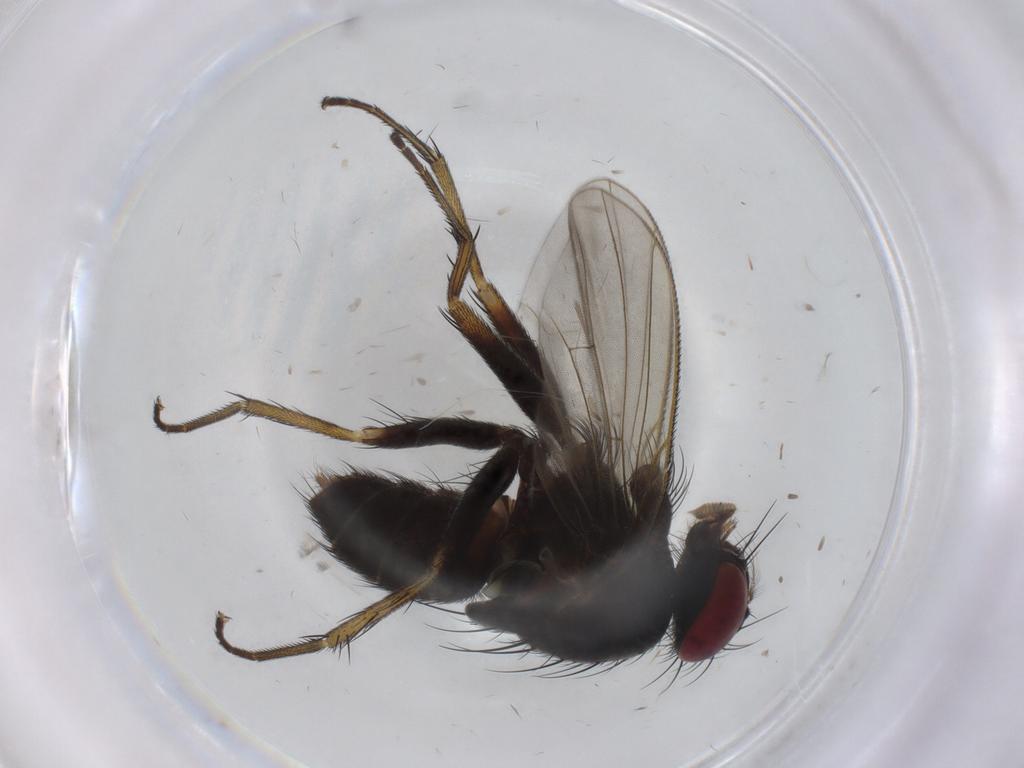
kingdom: Animalia
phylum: Arthropoda
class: Insecta
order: Diptera
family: Muscidae
